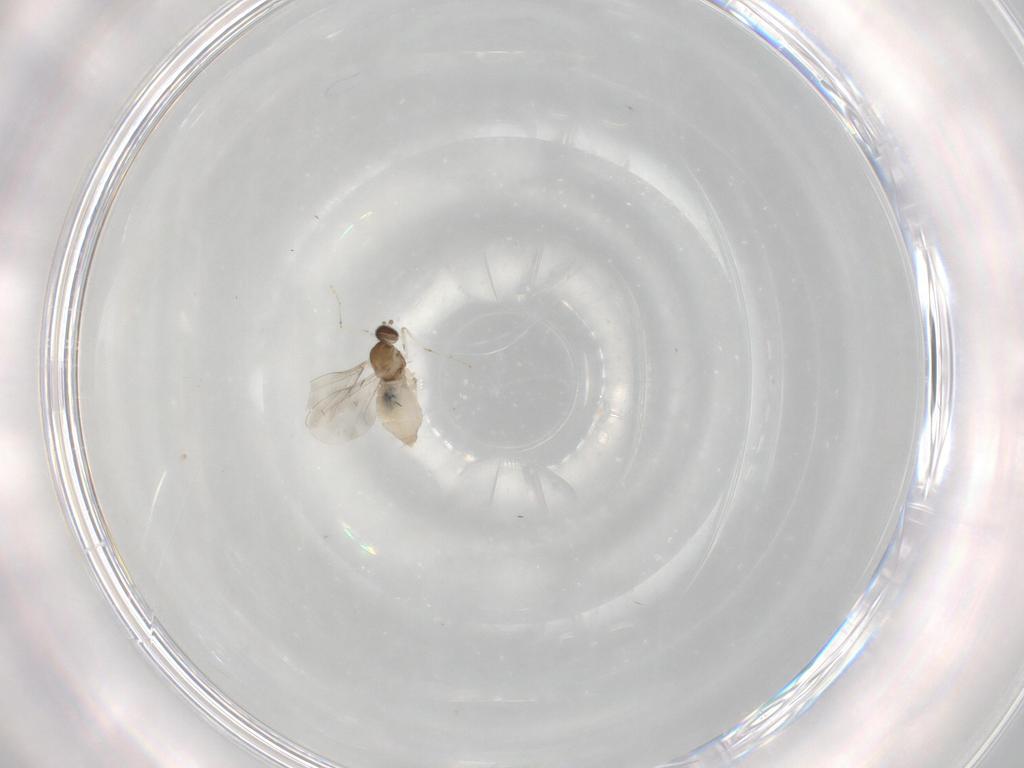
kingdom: Animalia
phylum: Arthropoda
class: Insecta
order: Diptera
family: Cecidomyiidae
